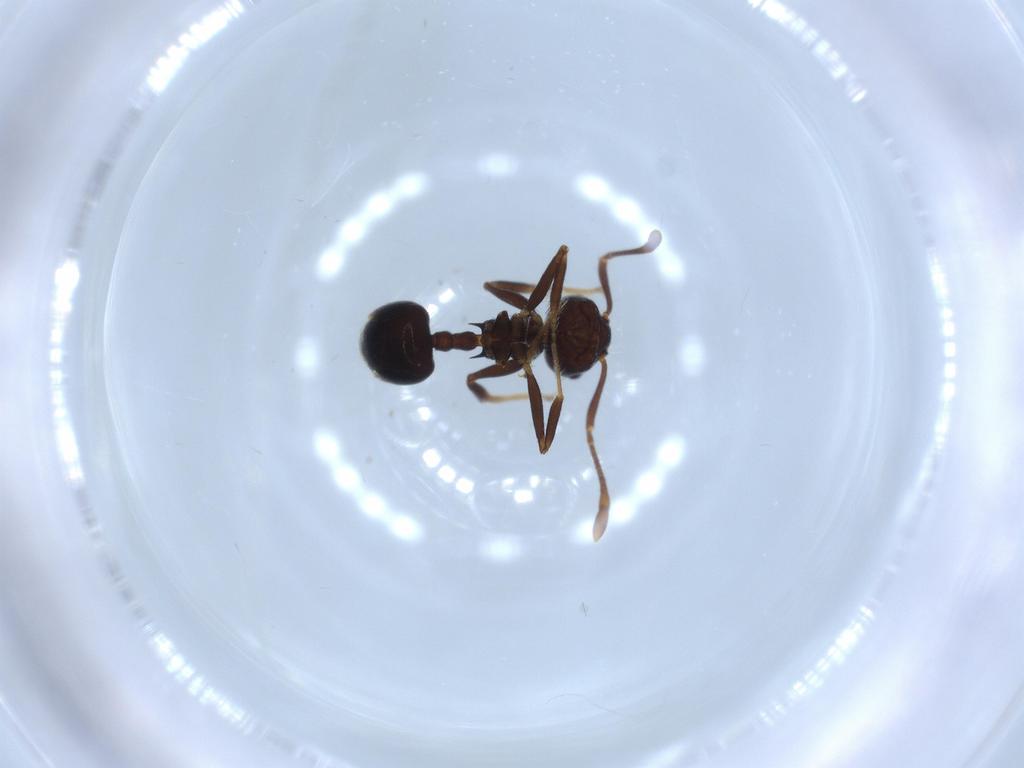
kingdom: Animalia
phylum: Arthropoda
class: Insecta
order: Hymenoptera
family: Formicidae
